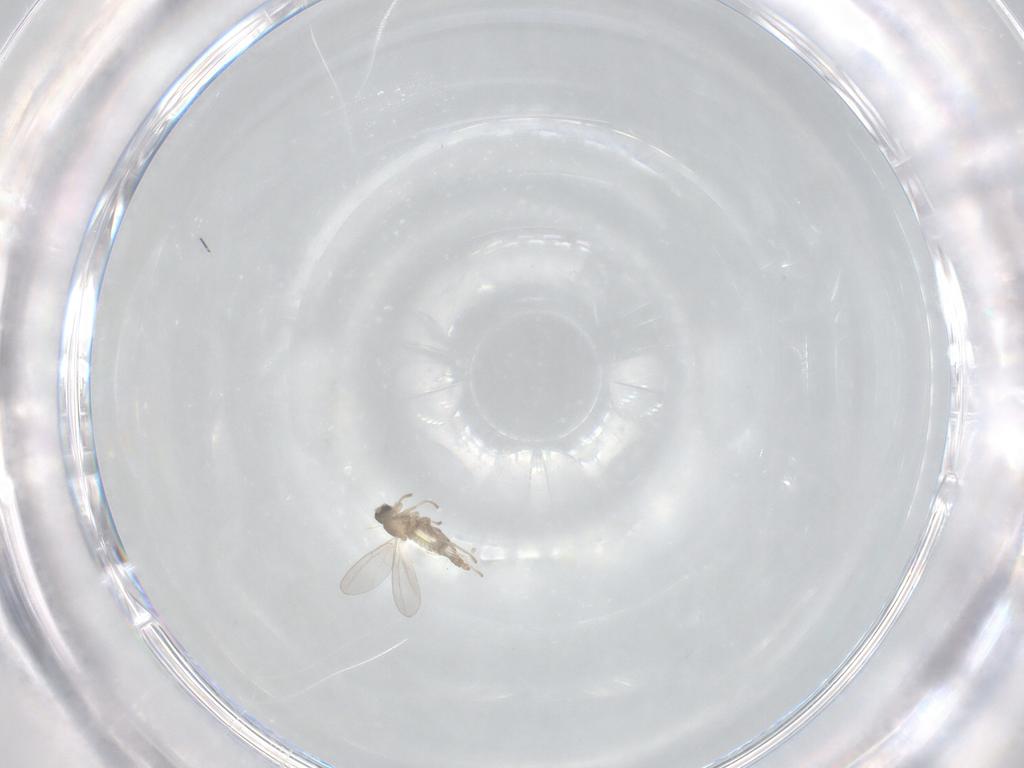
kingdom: Animalia
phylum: Arthropoda
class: Insecta
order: Diptera
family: Cecidomyiidae
